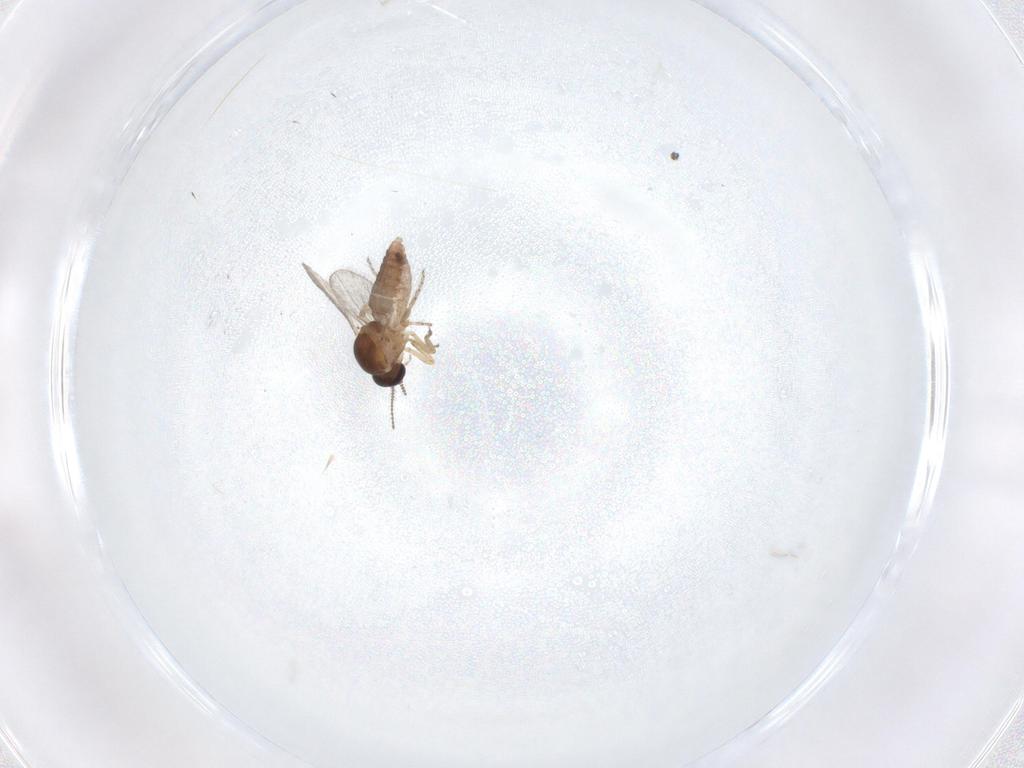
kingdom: Animalia
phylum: Arthropoda
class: Insecta
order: Diptera
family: Ceratopogonidae
